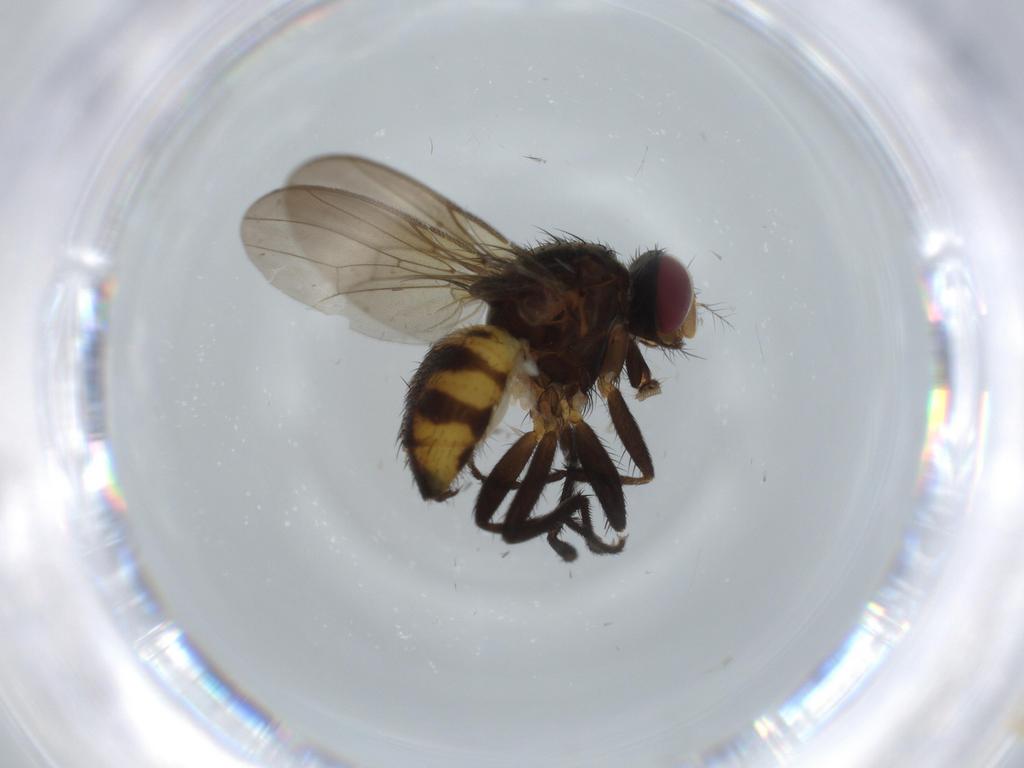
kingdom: Animalia
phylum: Arthropoda
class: Insecta
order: Diptera
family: Anthomyiidae
